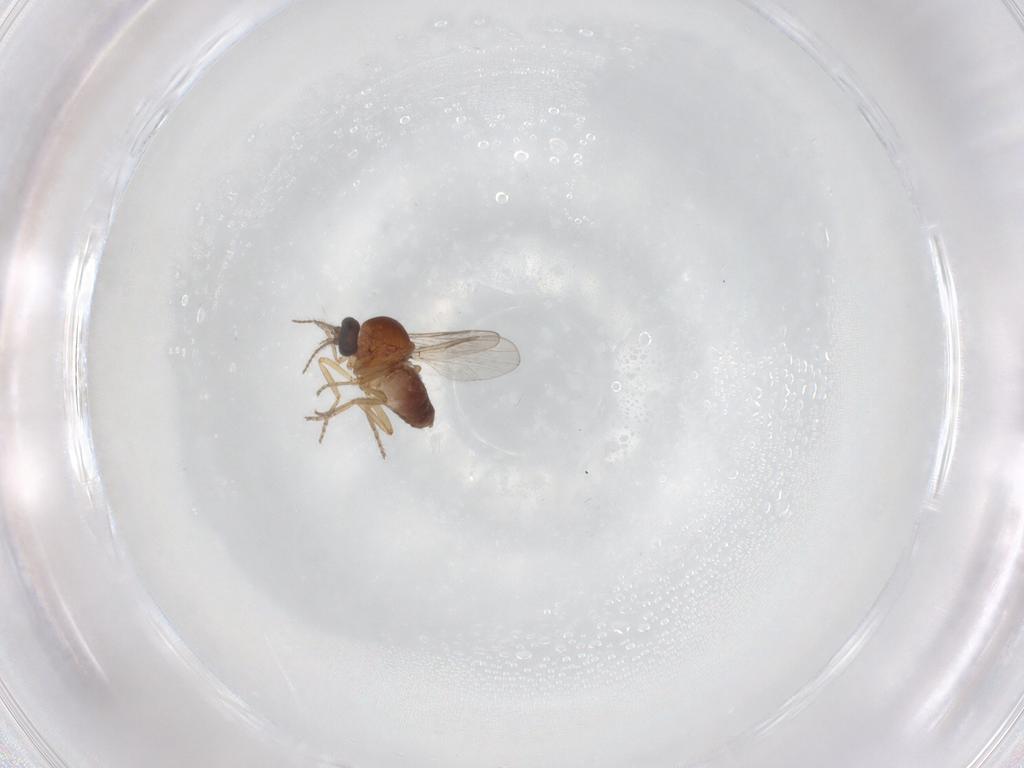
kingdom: Animalia
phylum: Arthropoda
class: Insecta
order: Diptera
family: Ceratopogonidae
